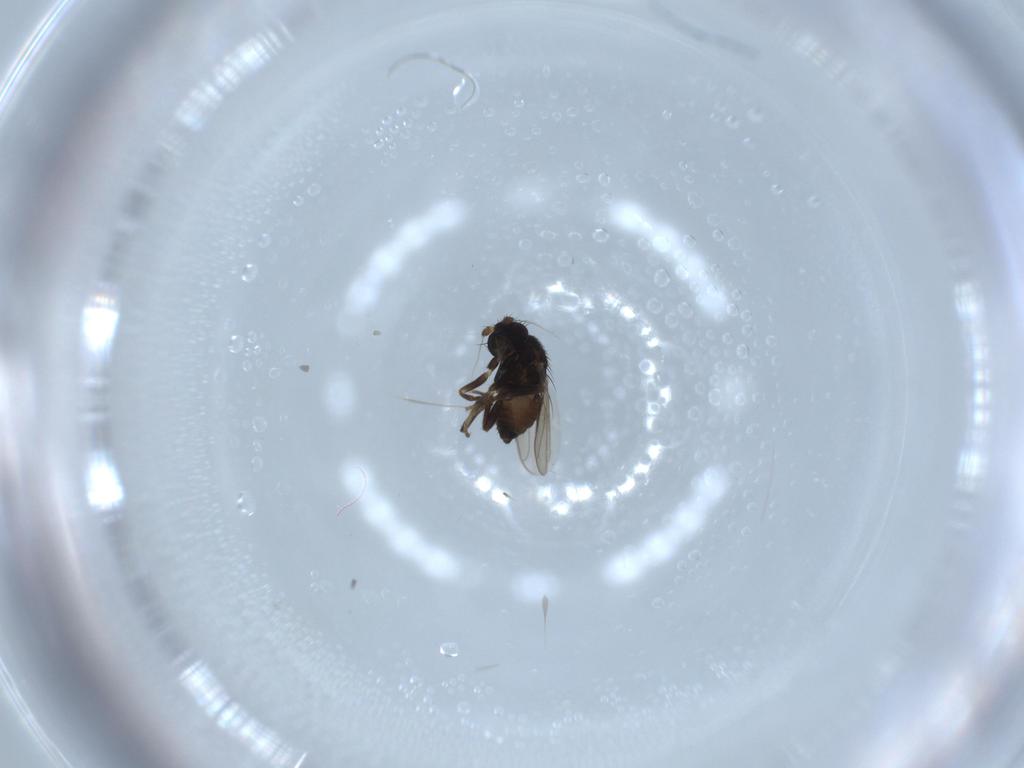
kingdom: Animalia
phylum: Arthropoda
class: Insecta
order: Diptera
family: Sphaeroceridae
